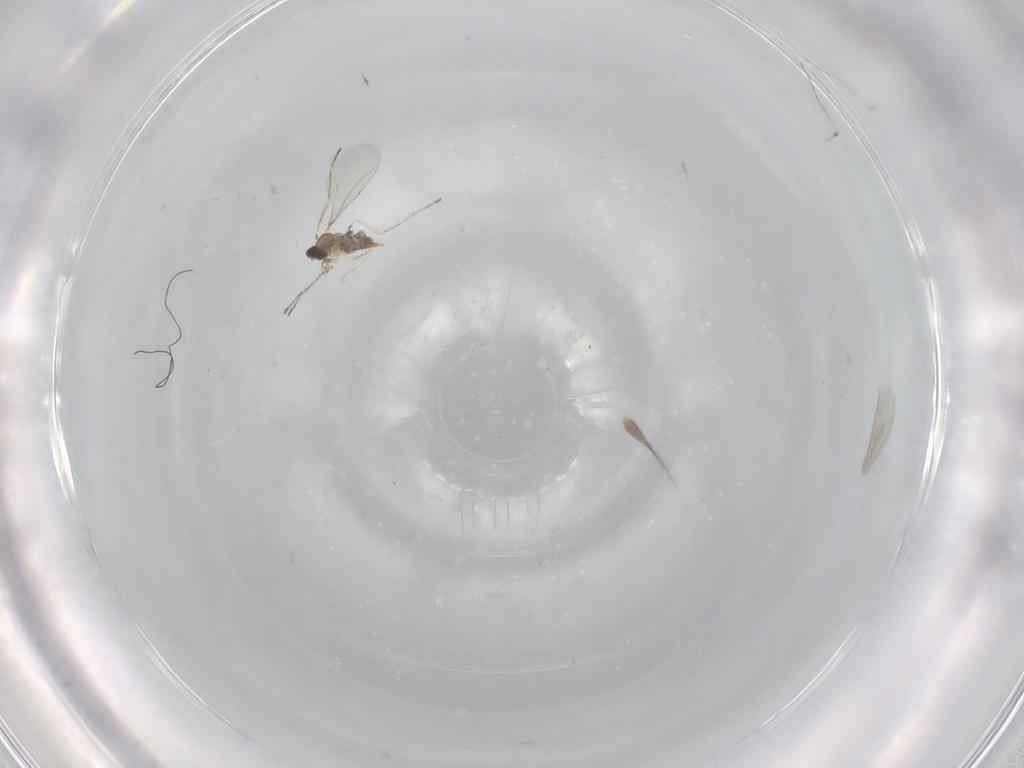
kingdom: Animalia
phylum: Arthropoda
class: Insecta
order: Diptera
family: Cecidomyiidae
